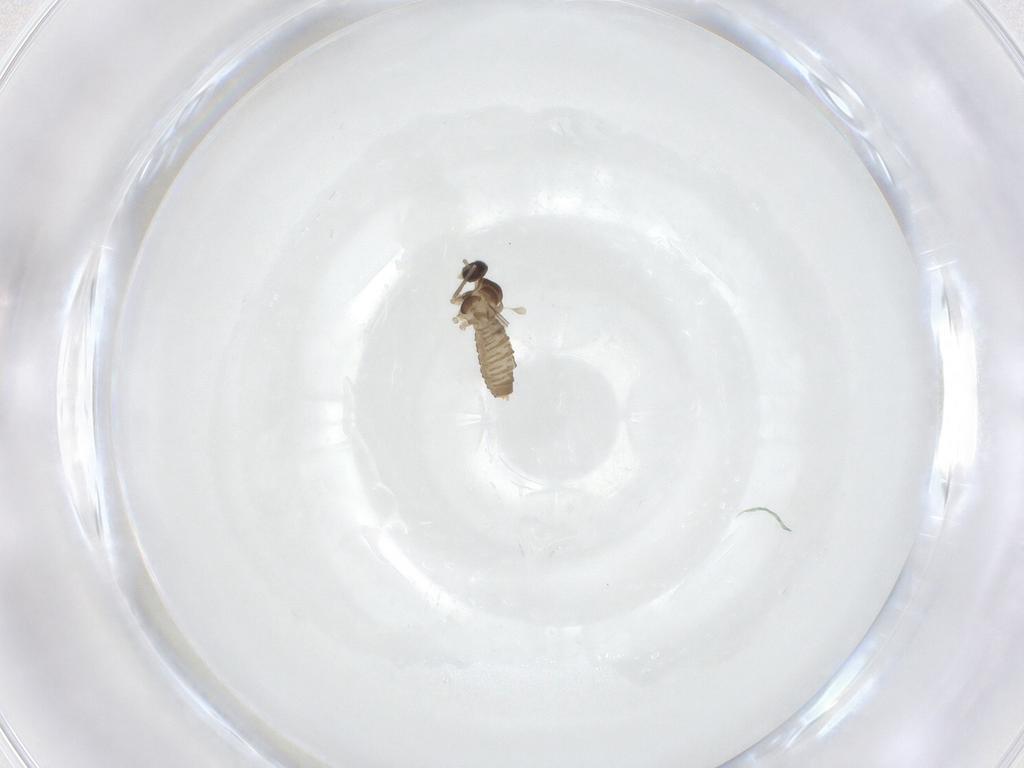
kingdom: Animalia
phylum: Arthropoda
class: Insecta
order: Diptera
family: Cecidomyiidae
